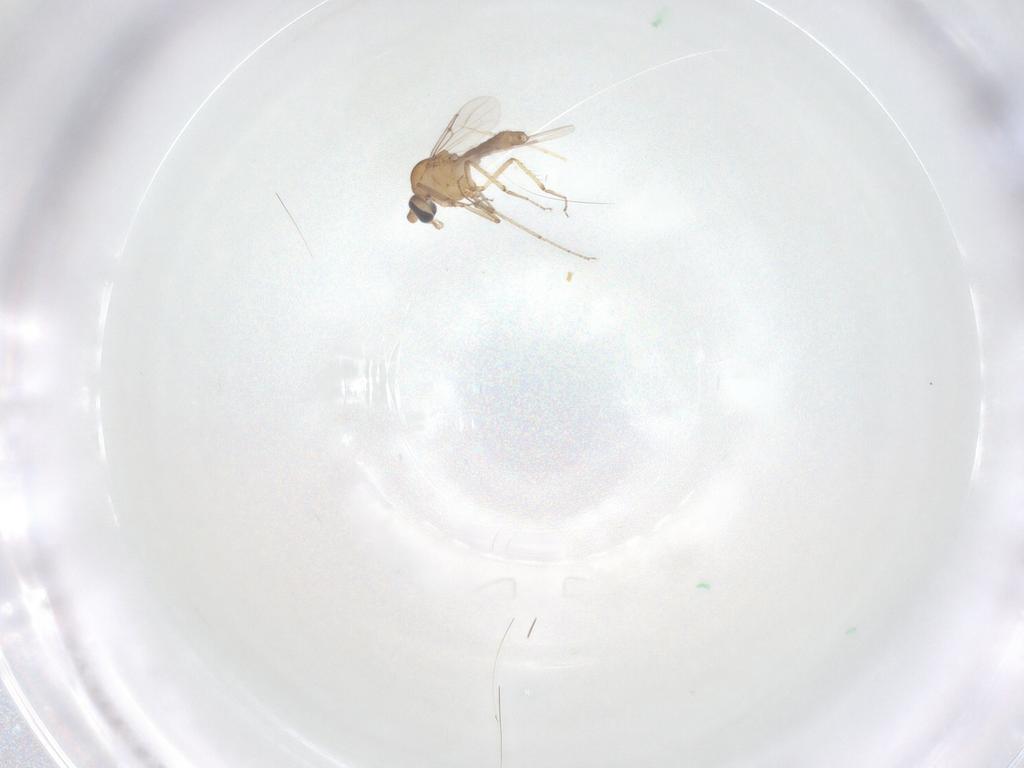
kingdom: Animalia
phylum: Arthropoda
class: Insecta
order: Diptera
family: Ceratopogonidae
